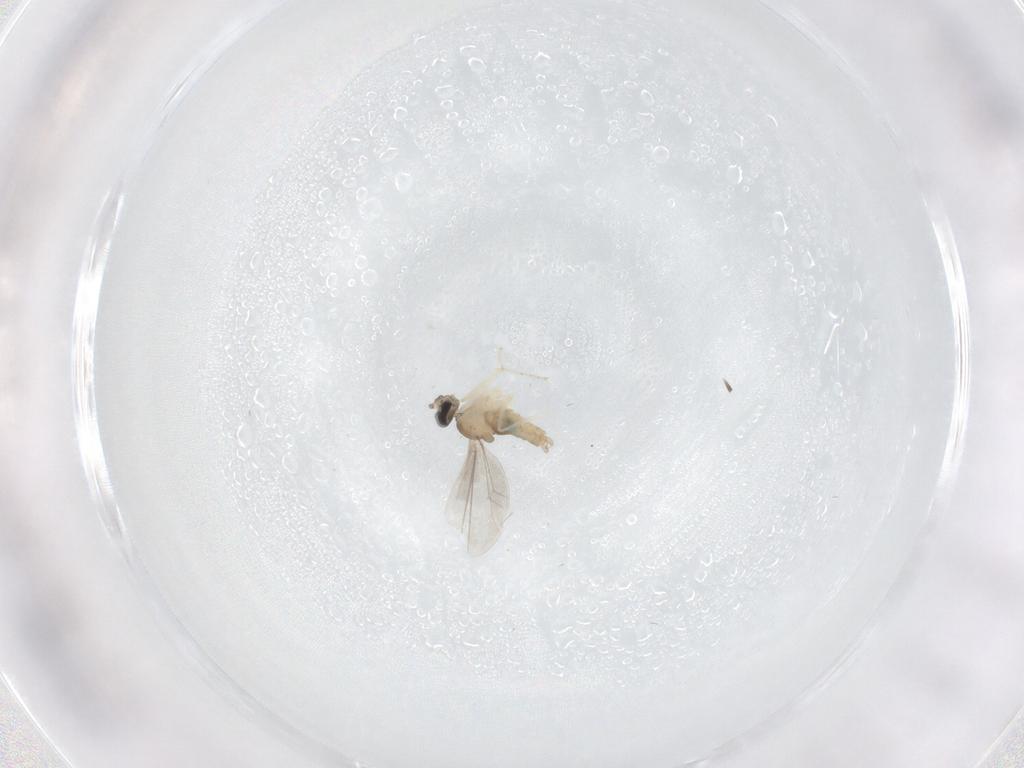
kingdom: Animalia
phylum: Arthropoda
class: Insecta
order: Diptera
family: Cecidomyiidae
